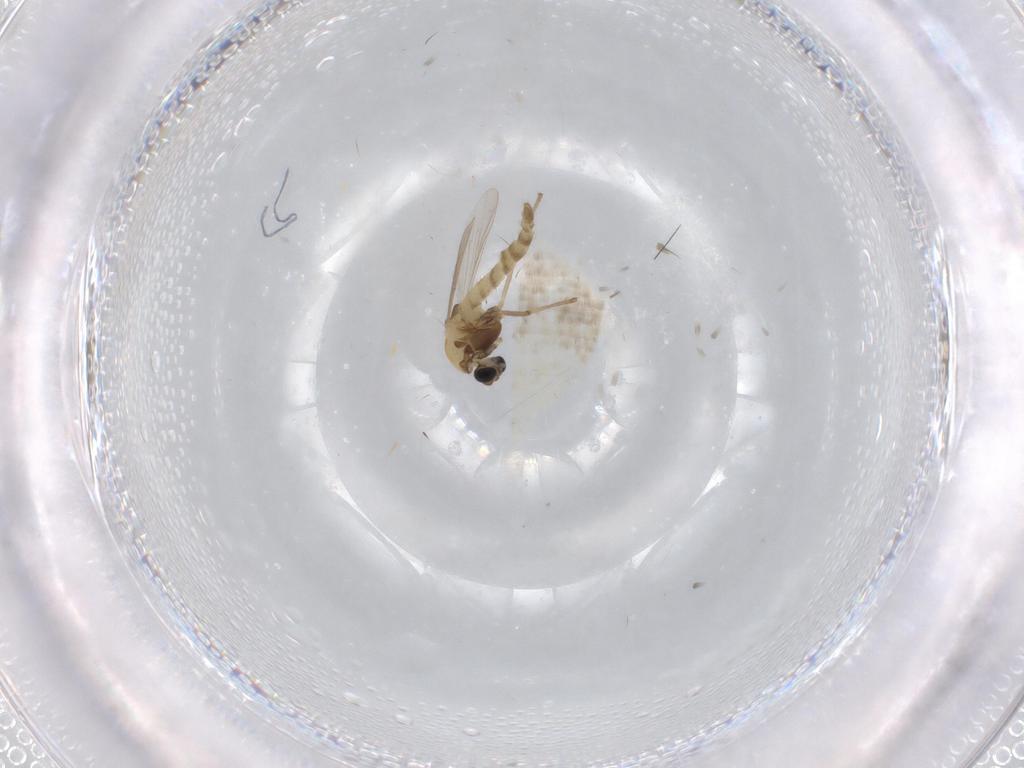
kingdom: Animalia
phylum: Arthropoda
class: Insecta
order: Diptera
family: Chironomidae
